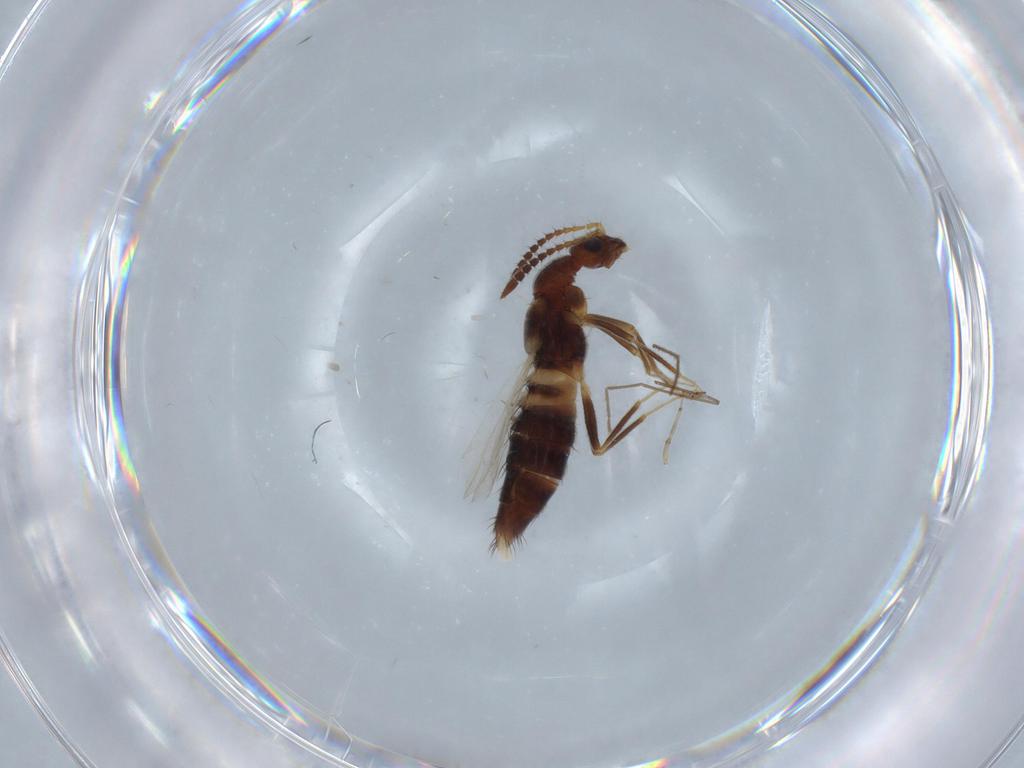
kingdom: Animalia
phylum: Arthropoda
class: Insecta
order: Coleoptera
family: Staphylinidae
